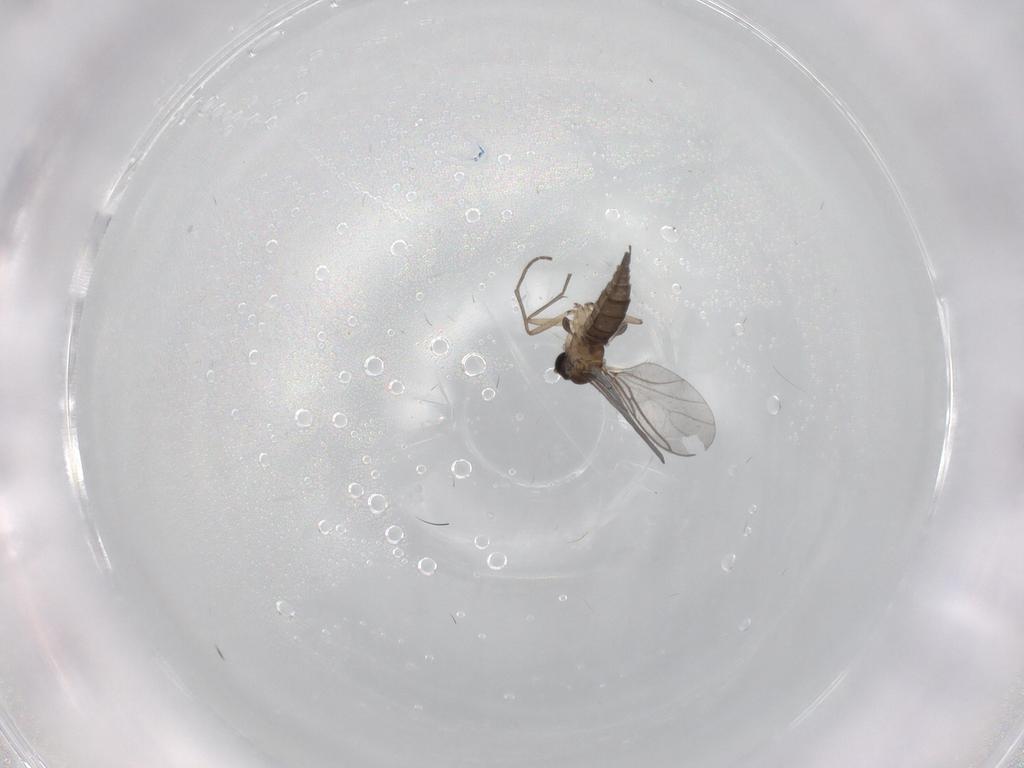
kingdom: Animalia
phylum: Arthropoda
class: Insecta
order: Diptera
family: Sciaridae
